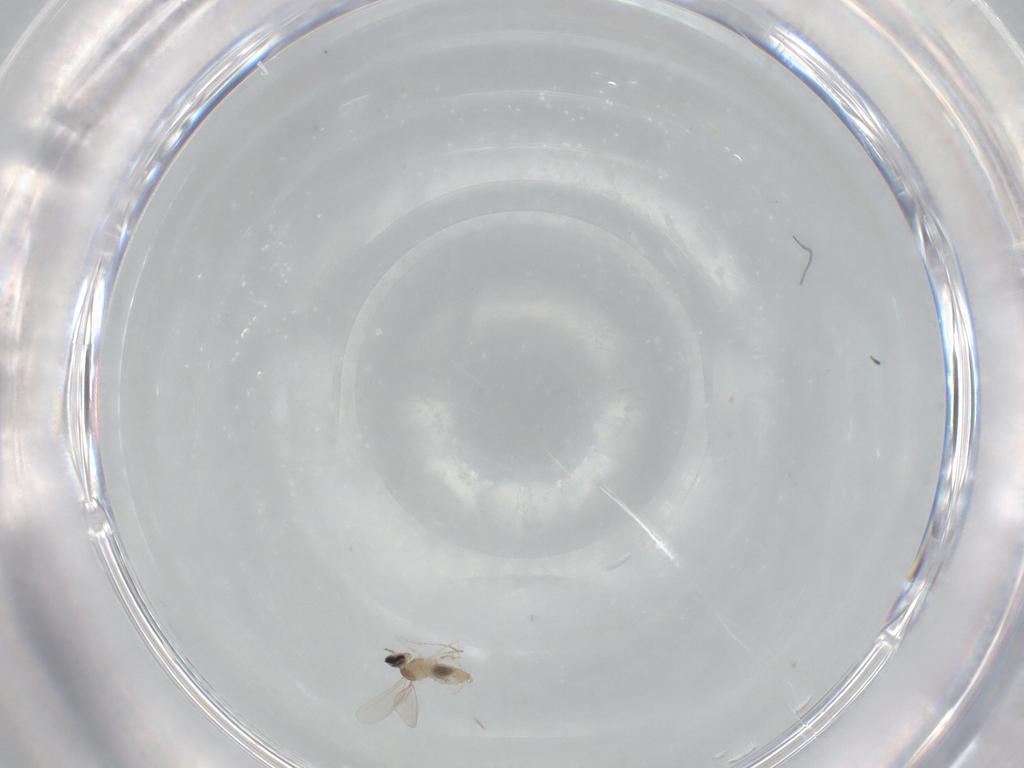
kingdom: Animalia
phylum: Arthropoda
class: Insecta
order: Diptera
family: Cecidomyiidae
